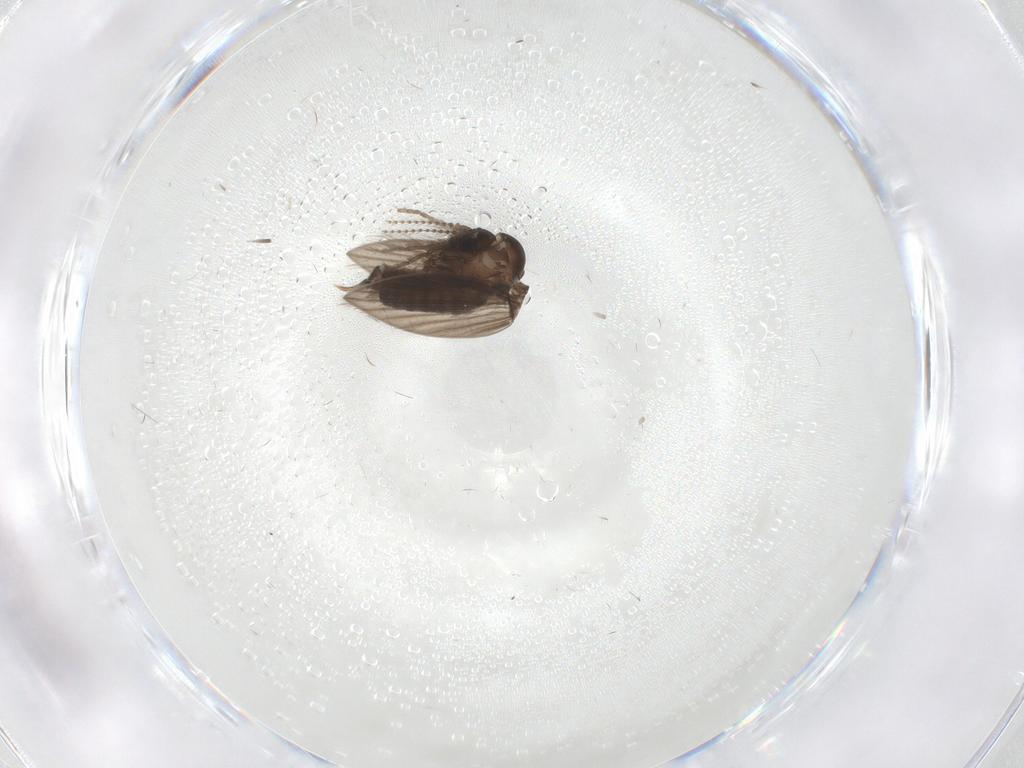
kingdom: Animalia
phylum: Arthropoda
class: Insecta
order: Diptera
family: Psychodidae
